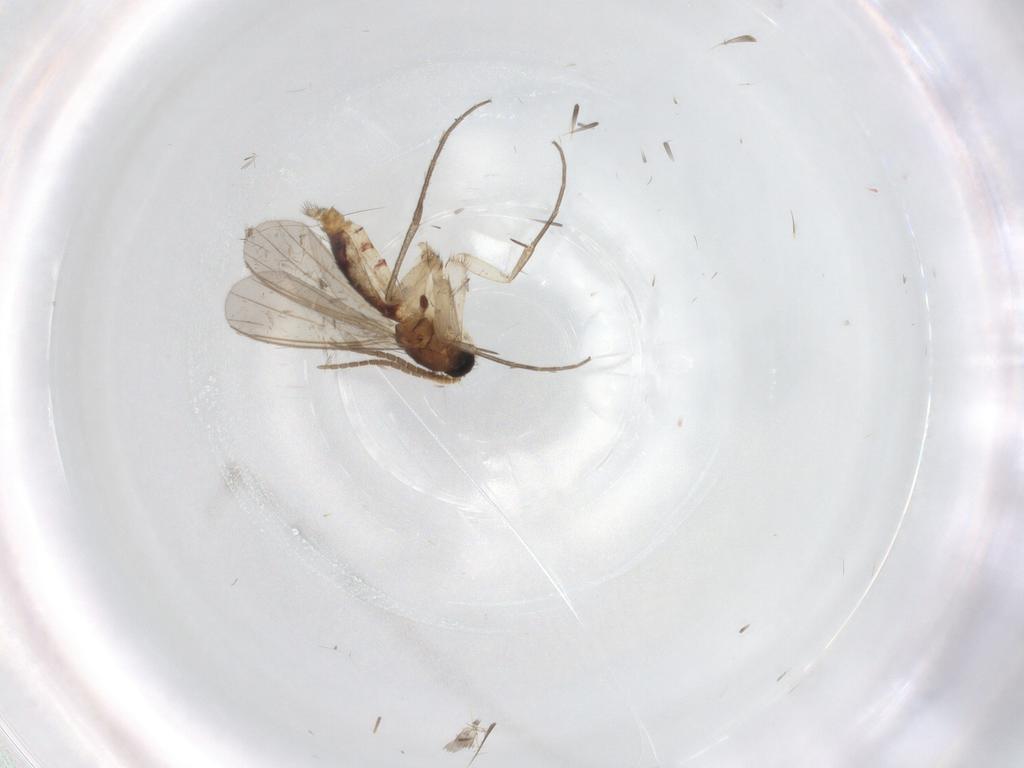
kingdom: Animalia
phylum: Arthropoda
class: Insecta
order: Diptera
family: Mycetophilidae
